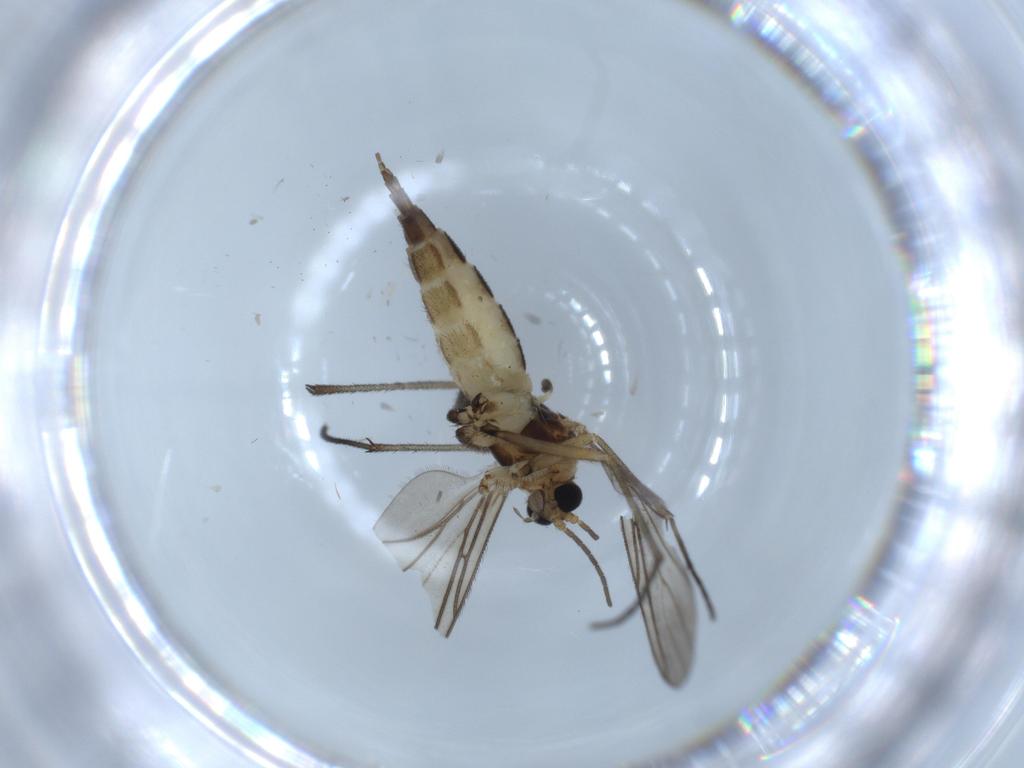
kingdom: Animalia
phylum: Arthropoda
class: Insecta
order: Diptera
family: Sciaridae
